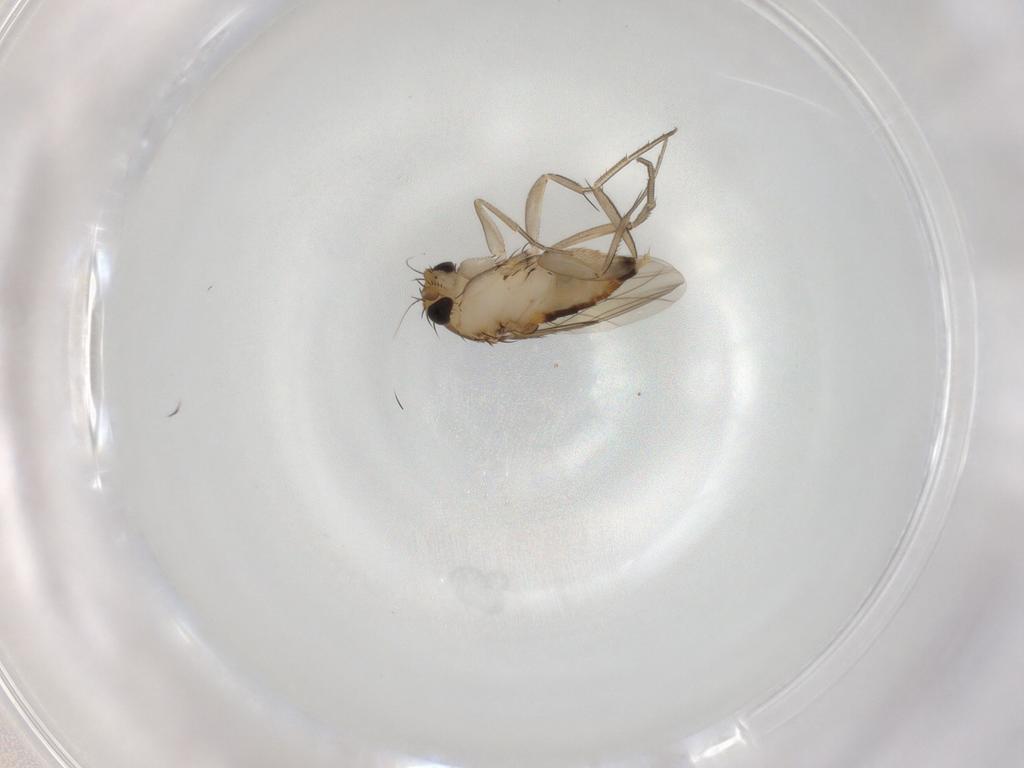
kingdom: Animalia
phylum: Arthropoda
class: Insecta
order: Diptera
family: Phoridae
